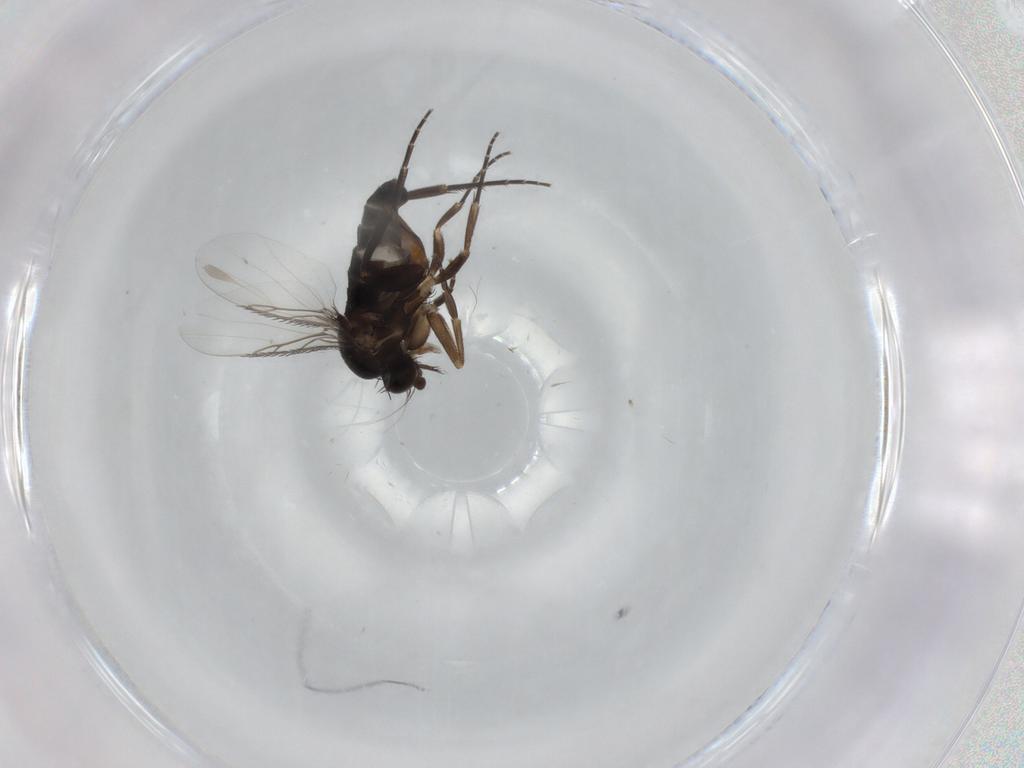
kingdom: Animalia
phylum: Arthropoda
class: Insecta
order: Diptera
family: Phoridae
